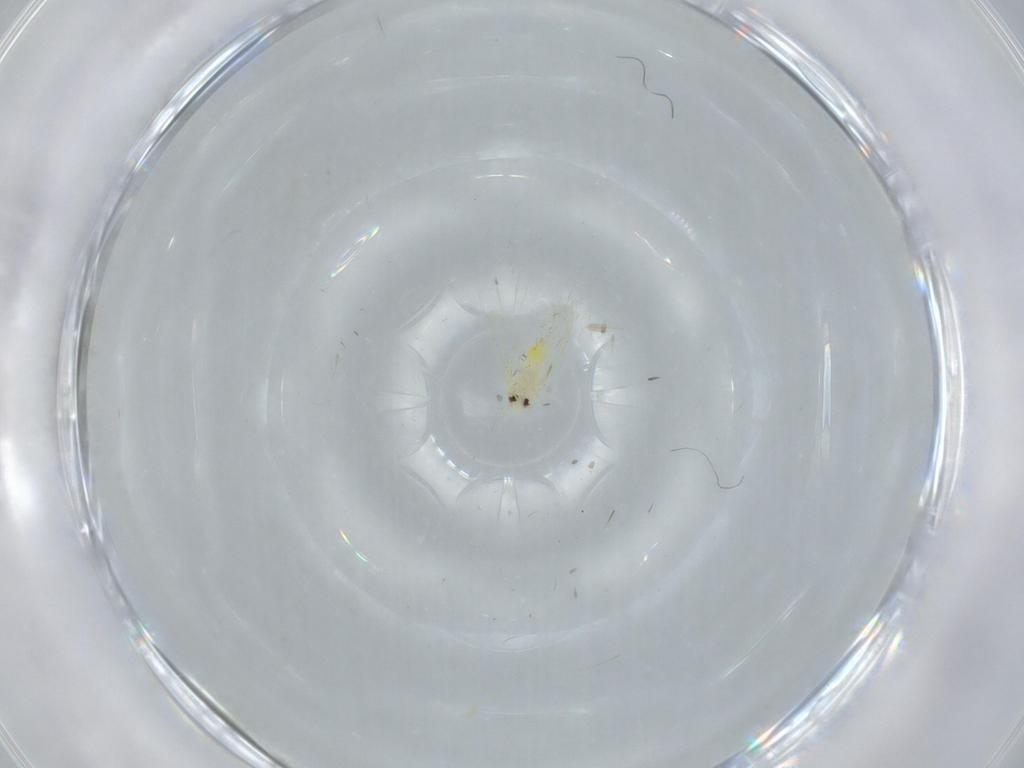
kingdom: Animalia
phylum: Arthropoda
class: Insecta
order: Hemiptera
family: Aleyrodidae
